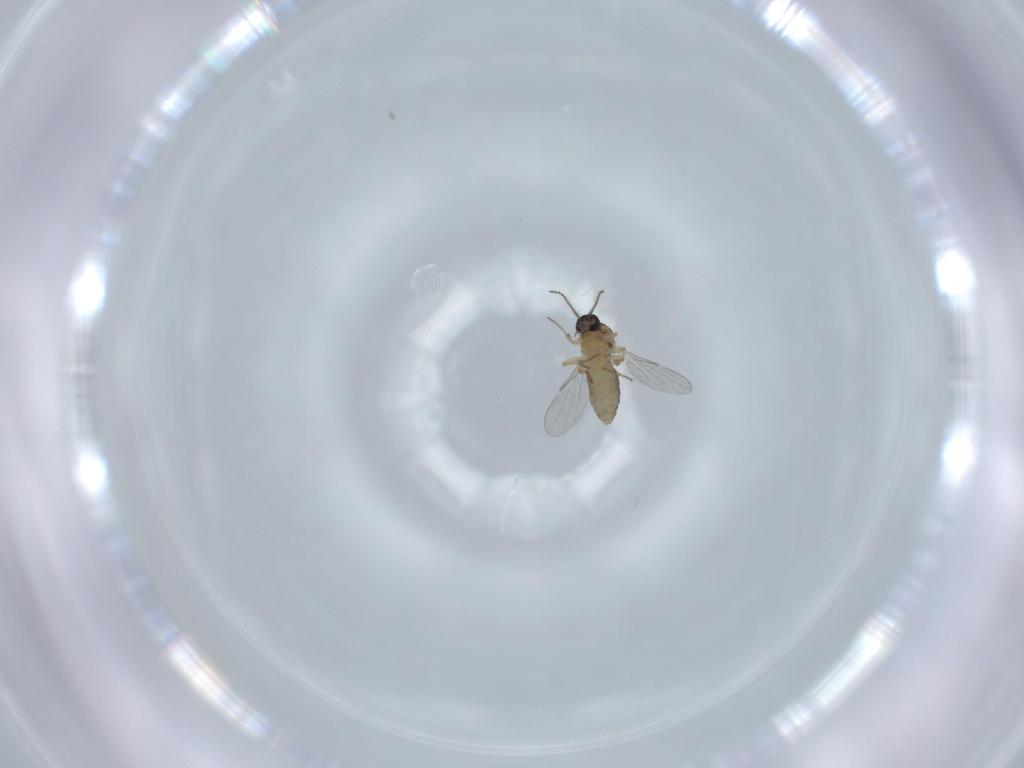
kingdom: Animalia
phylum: Arthropoda
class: Insecta
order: Diptera
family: Ceratopogonidae
